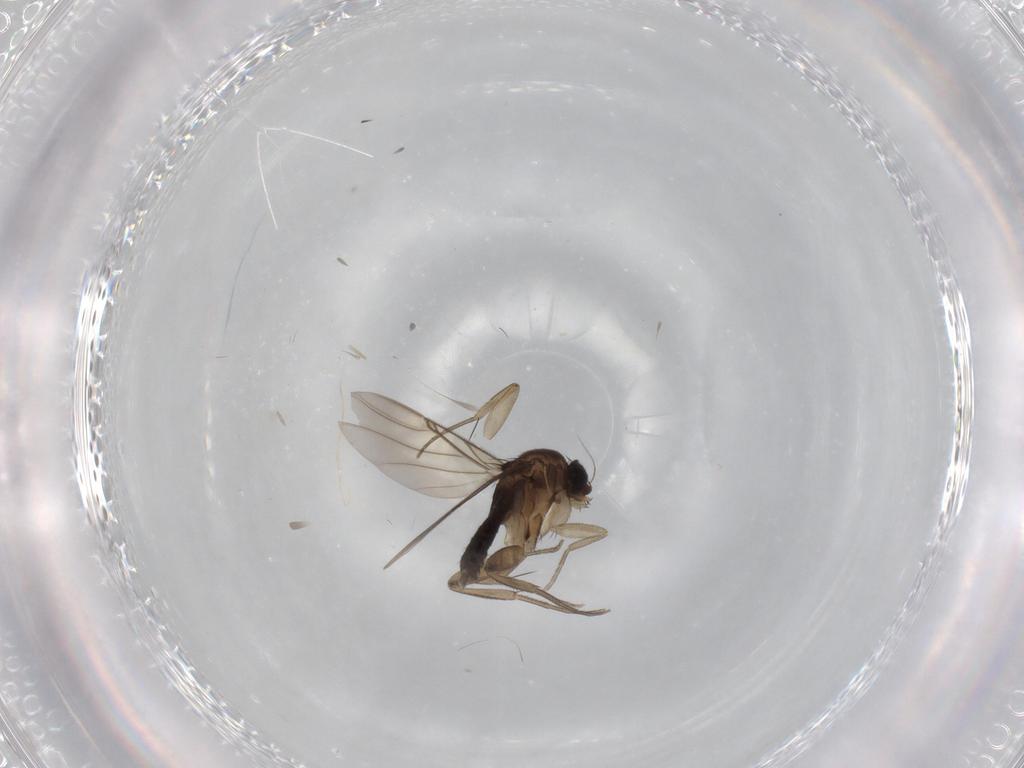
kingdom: Animalia
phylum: Arthropoda
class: Insecta
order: Diptera
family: Phoridae
